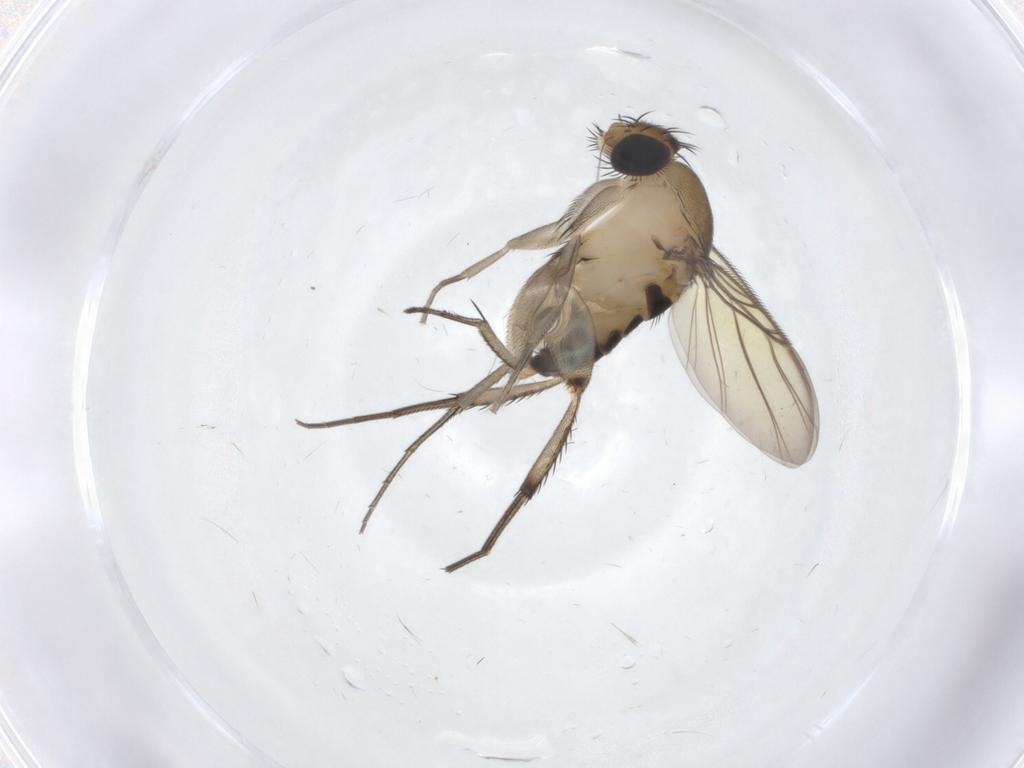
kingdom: Animalia
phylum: Arthropoda
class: Insecta
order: Diptera
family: Phoridae
